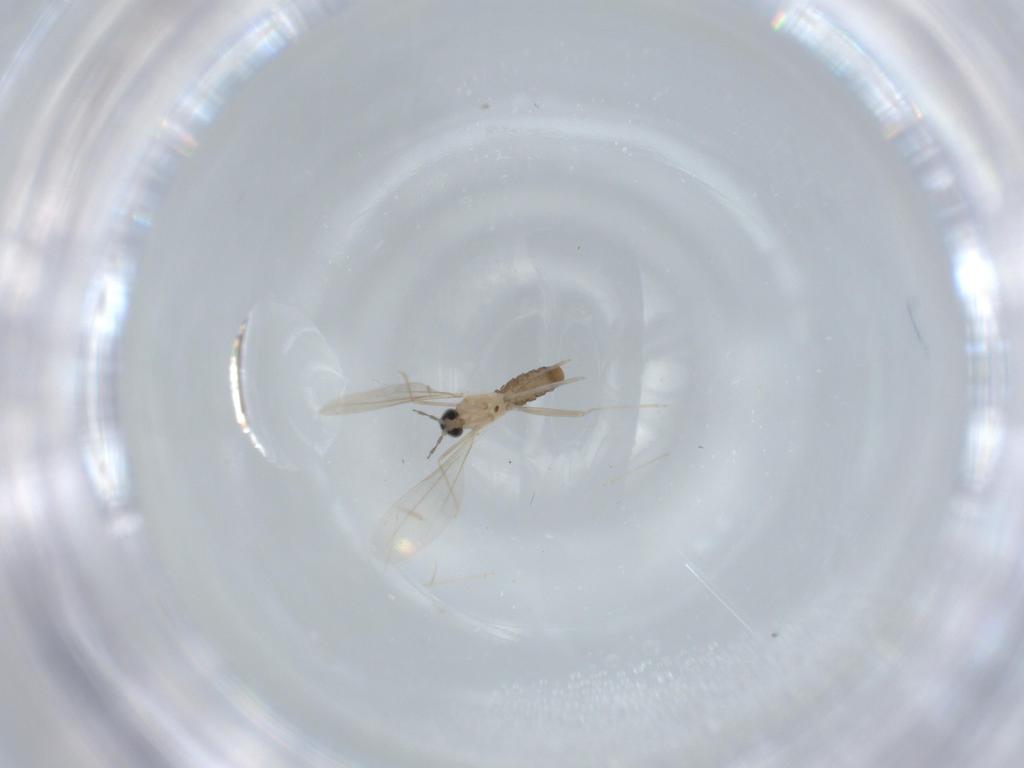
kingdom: Animalia
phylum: Arthropoda
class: Insecta
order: Diptera
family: Cecidomyiidae
